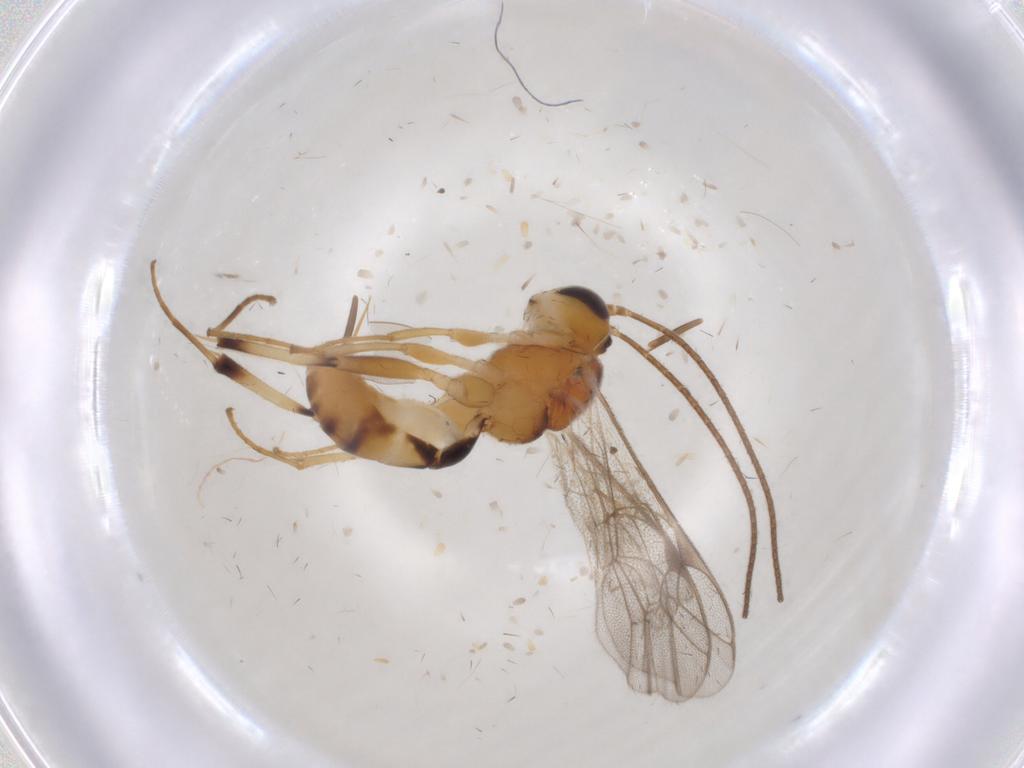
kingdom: Animalia
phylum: Arthropoda
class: Insecta
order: Hymenoptera
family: Ichneumonidae
